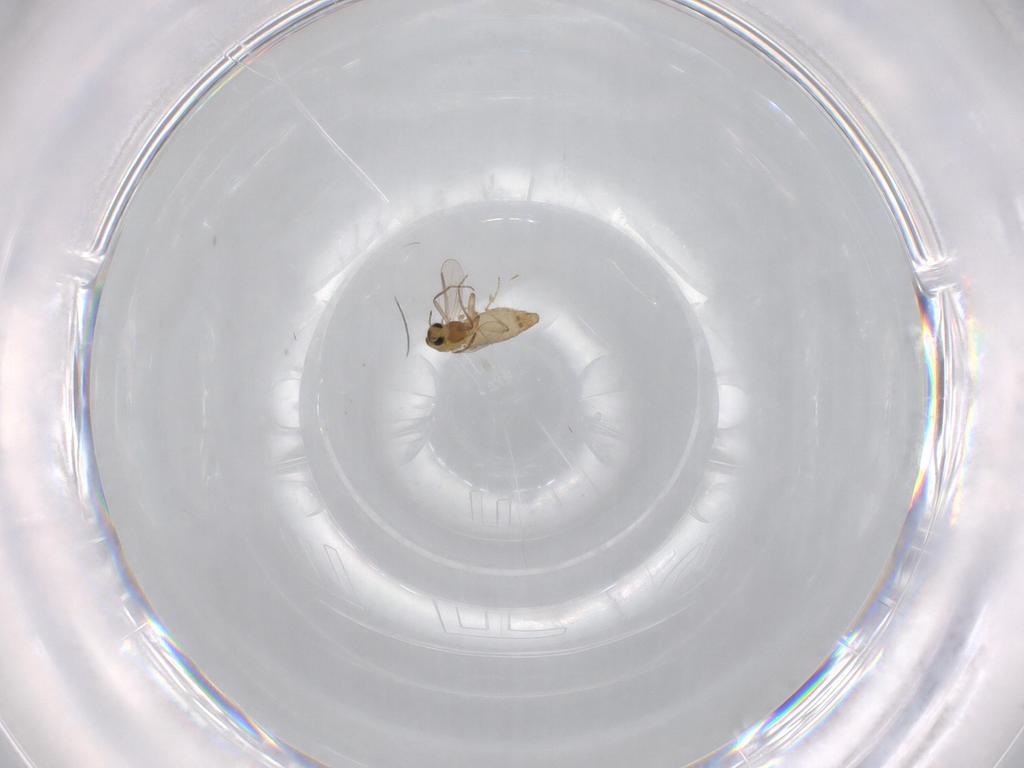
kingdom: Animalia
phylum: Arthropoda
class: Insecta
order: Diptera
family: Chironomidae
